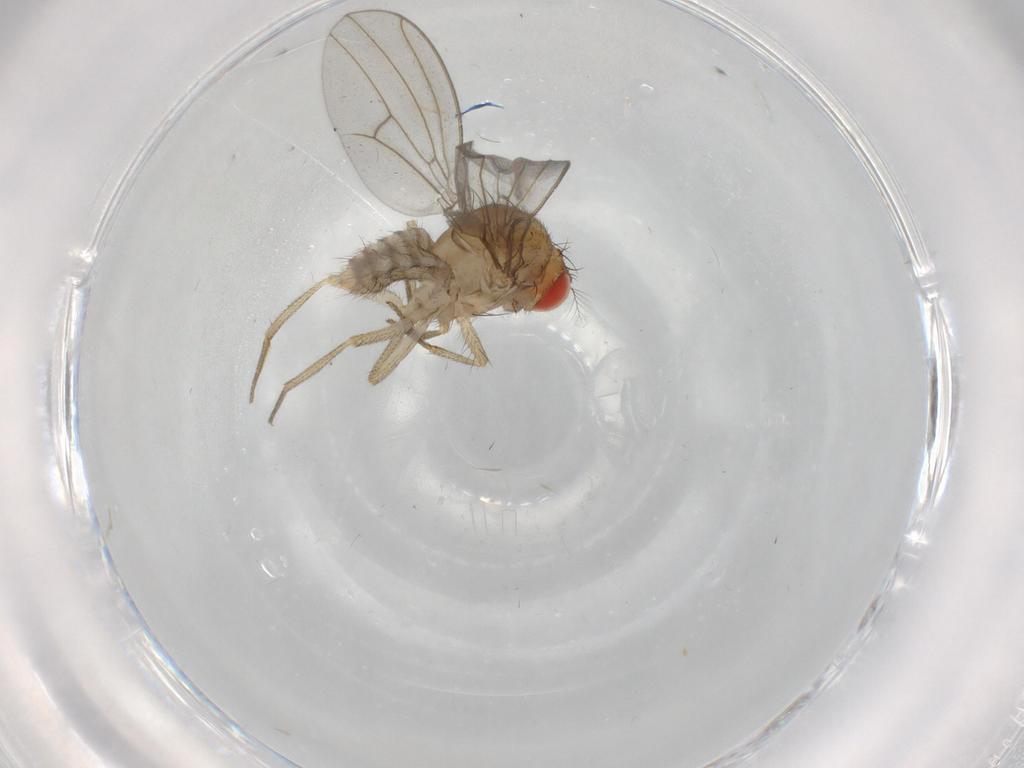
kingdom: Animalia
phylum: Arthropoda
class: Insecta
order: Diptera
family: Drosophilidae
